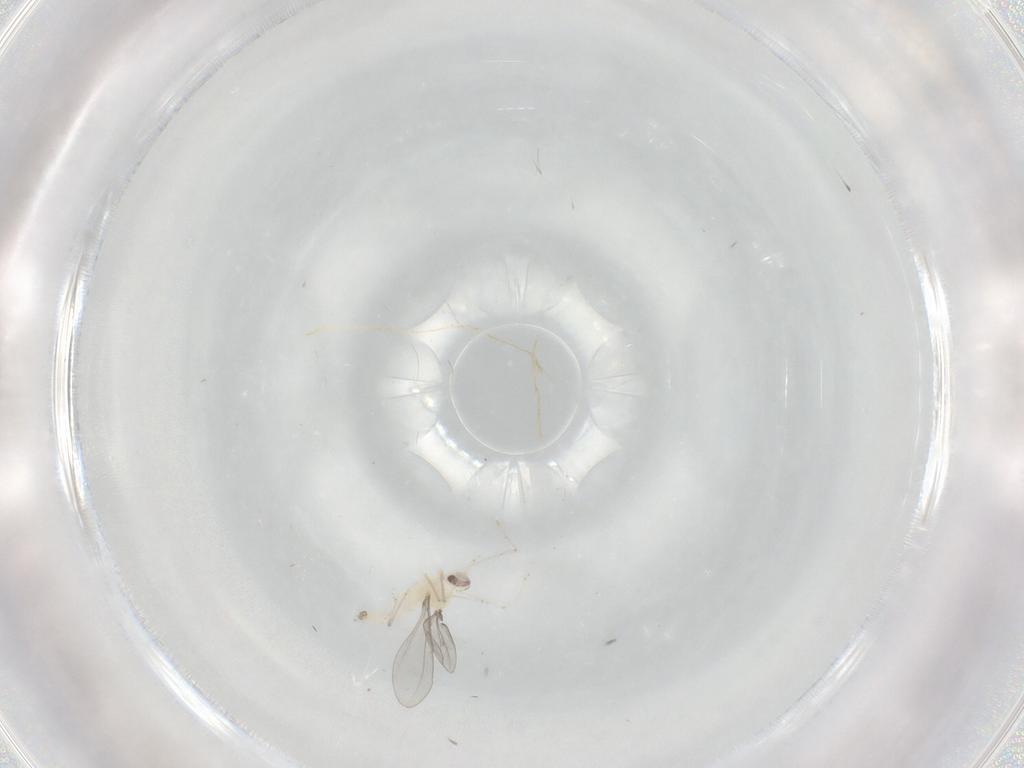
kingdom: Animalia
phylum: Arthropoda
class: Insecta
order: Diptera
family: Cecidomyiidae
